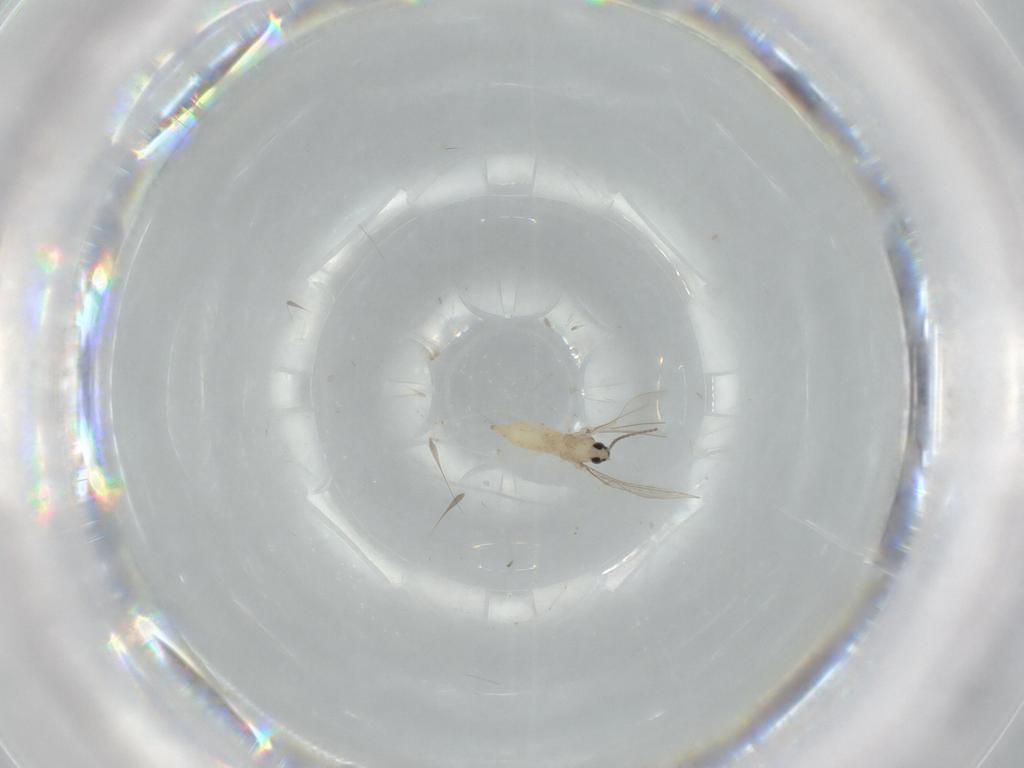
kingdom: Animalia
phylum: Arthropoda
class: Insecta
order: Diptera
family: Cecidomyiidae
